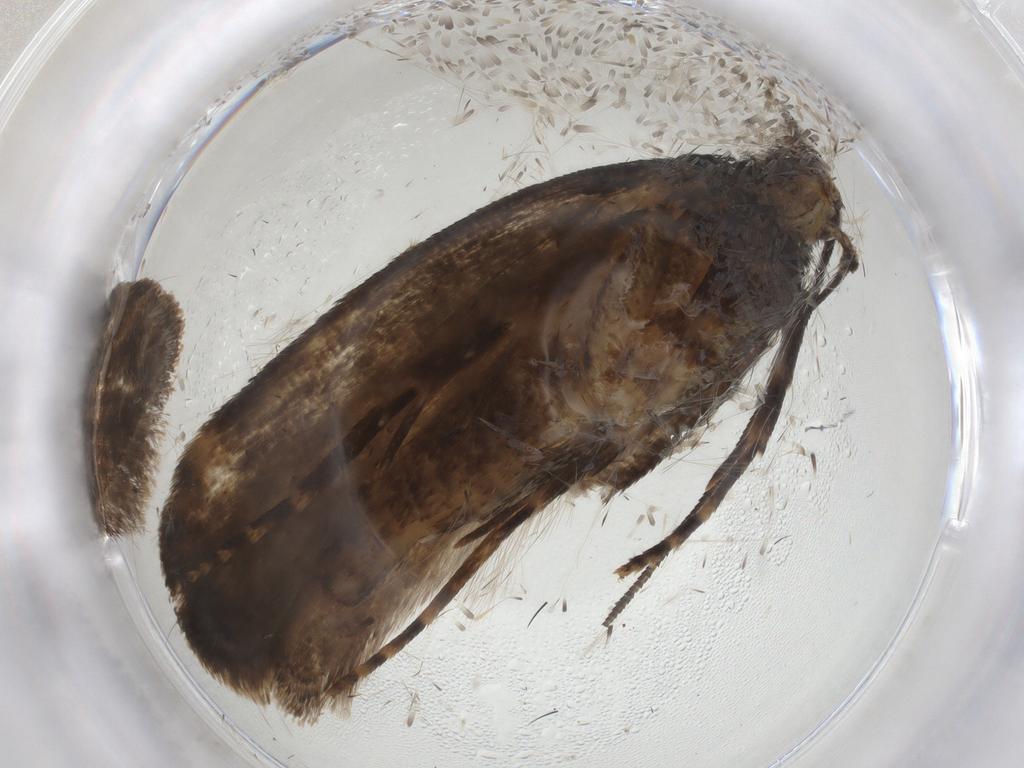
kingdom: Animalia
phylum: Arthropoda
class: Insecta
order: Lepidoptera
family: Gelechiidae
